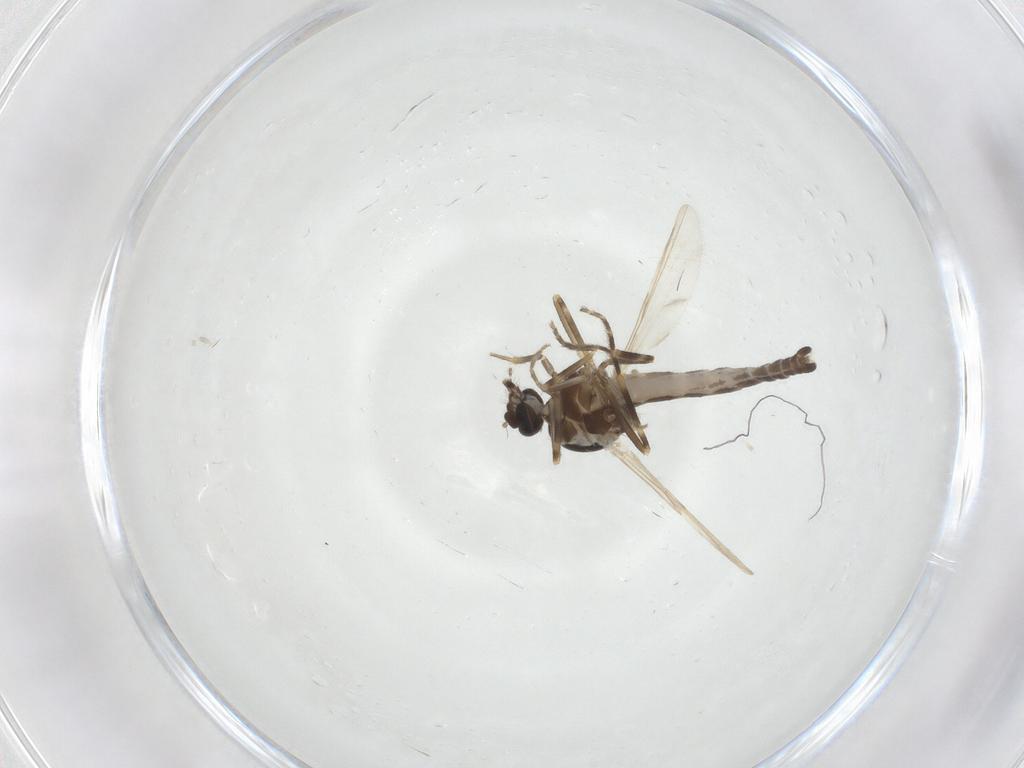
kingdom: Animalia
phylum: Arthropoda
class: Insecta
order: Diptera
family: Ceratopogonidae
